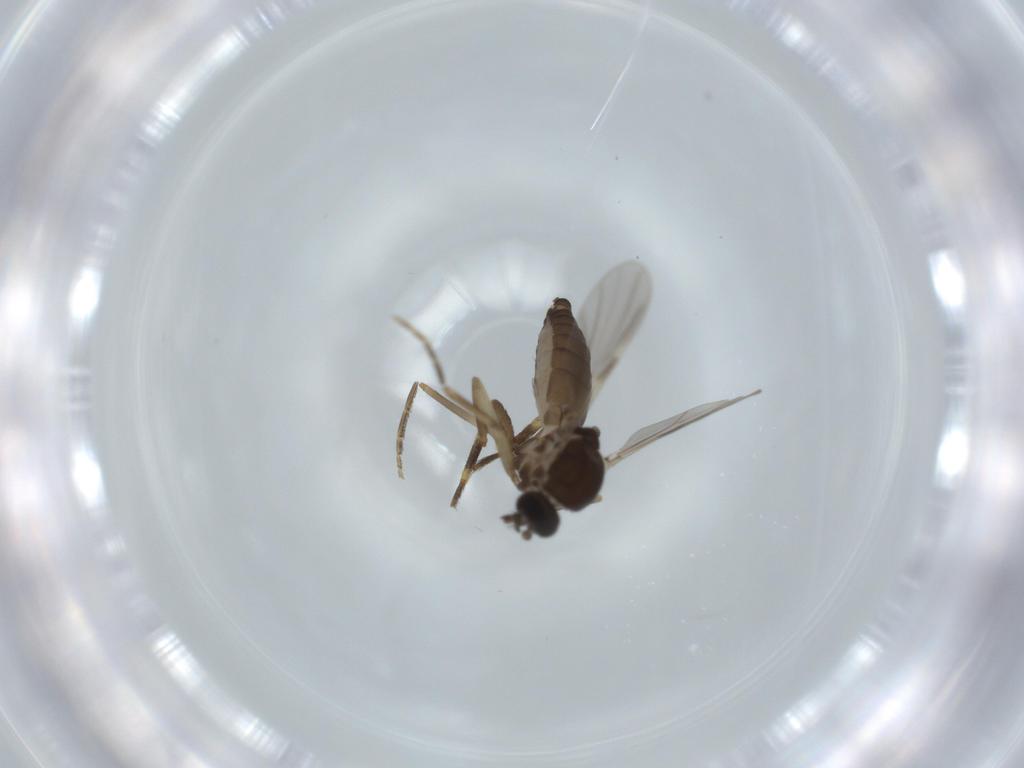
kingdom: Animalia
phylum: Arthropoda
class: Insecta
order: Diptera
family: Ceratopogonidae
